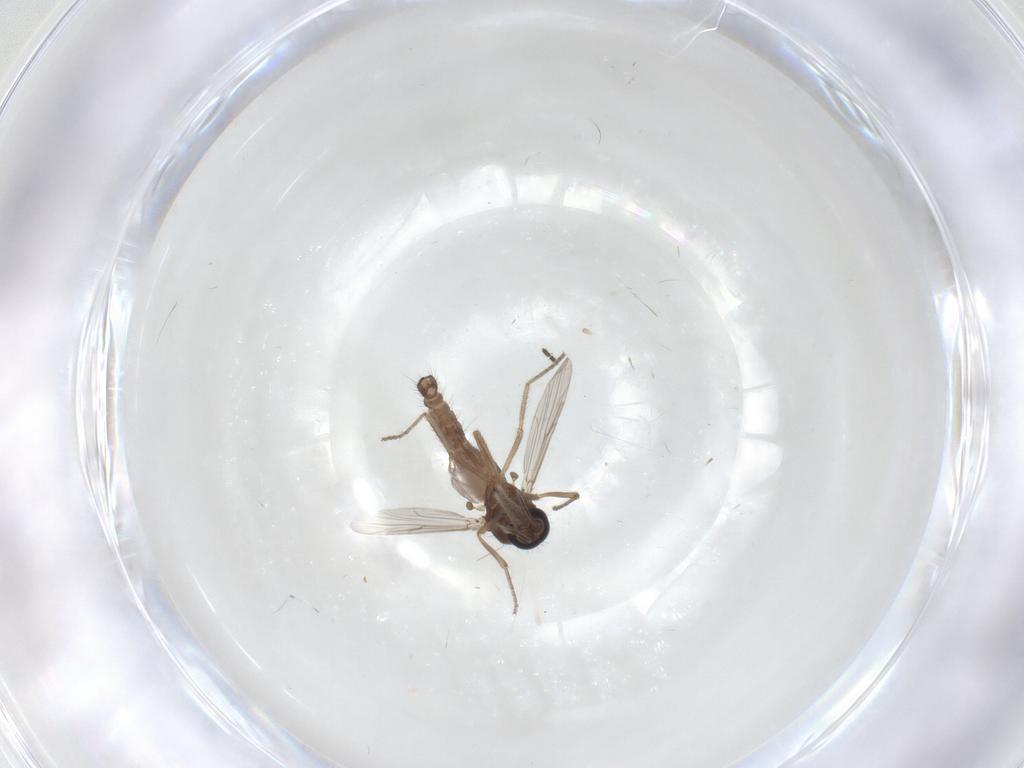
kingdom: Animalia
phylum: Arthropoda
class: Insecta
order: Diptera
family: Ceratopogonidae
